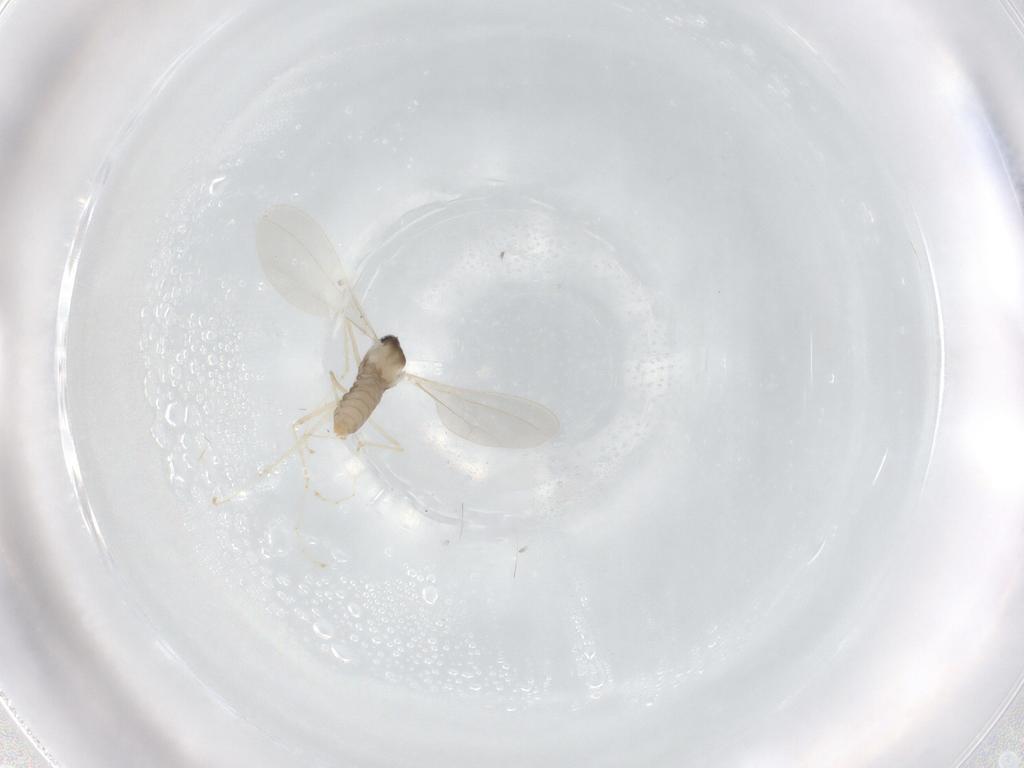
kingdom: Animalia
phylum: Arthropoda
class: Insecta
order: Diptera
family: Cecidomyiidae
